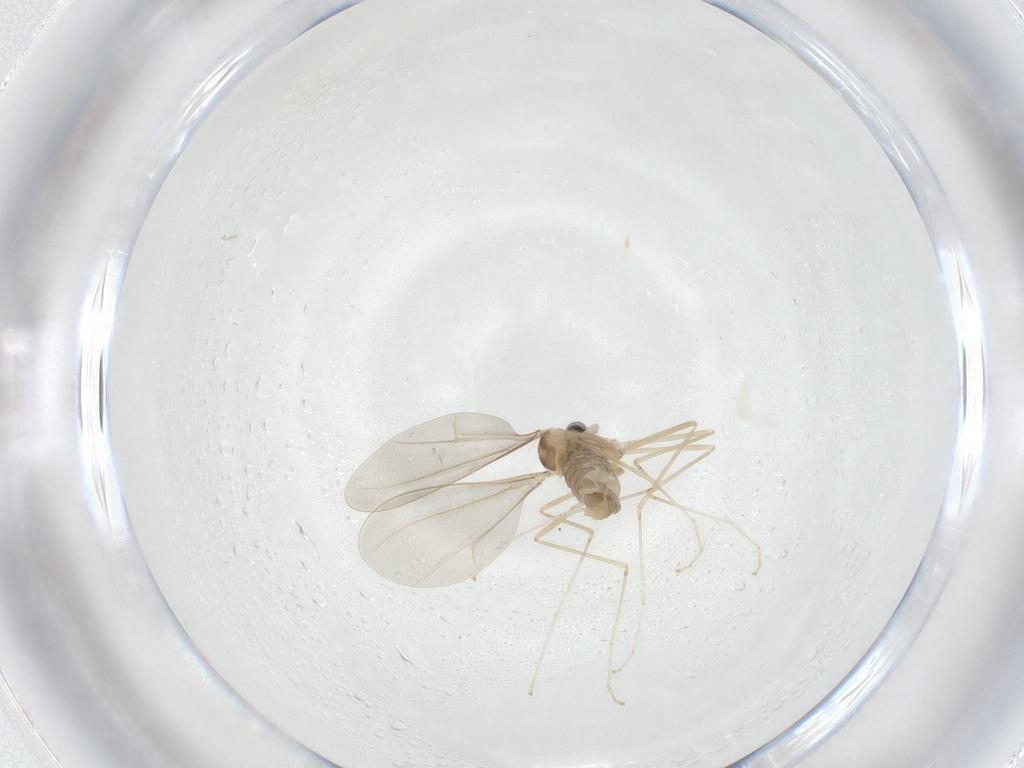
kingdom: Animalia
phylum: Arthropoda
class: Insecta
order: Diptera
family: Cecidomyiidae
